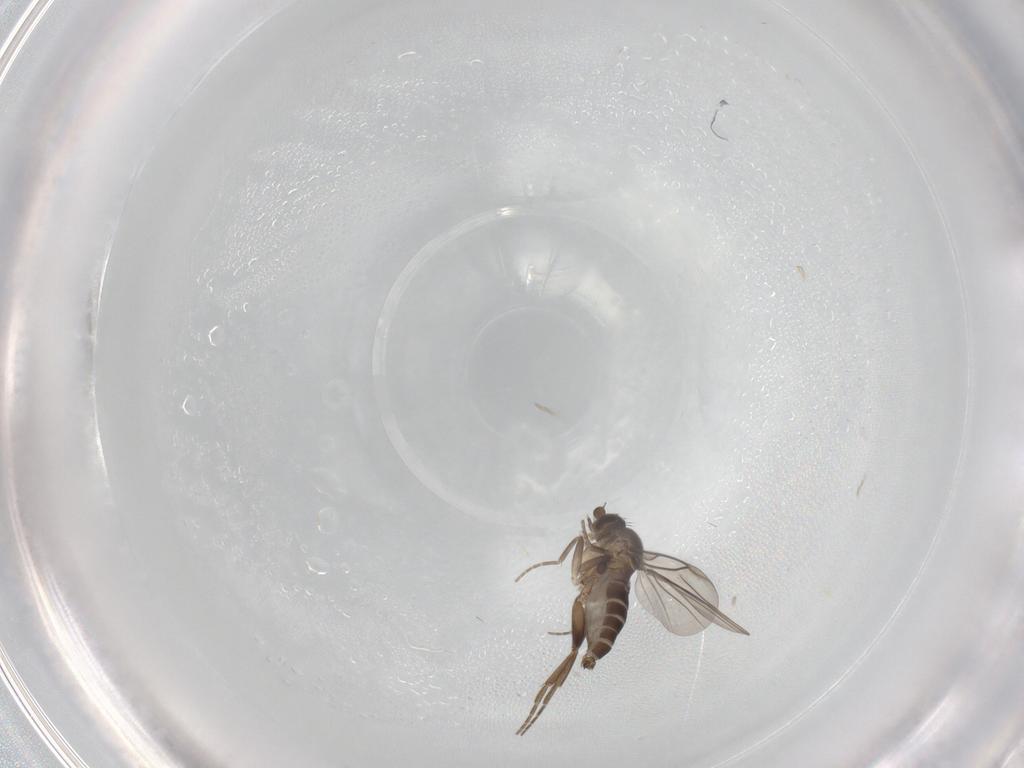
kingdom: Animalia
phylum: Arthropoda
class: Insecta
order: Diptera
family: Phoridae
